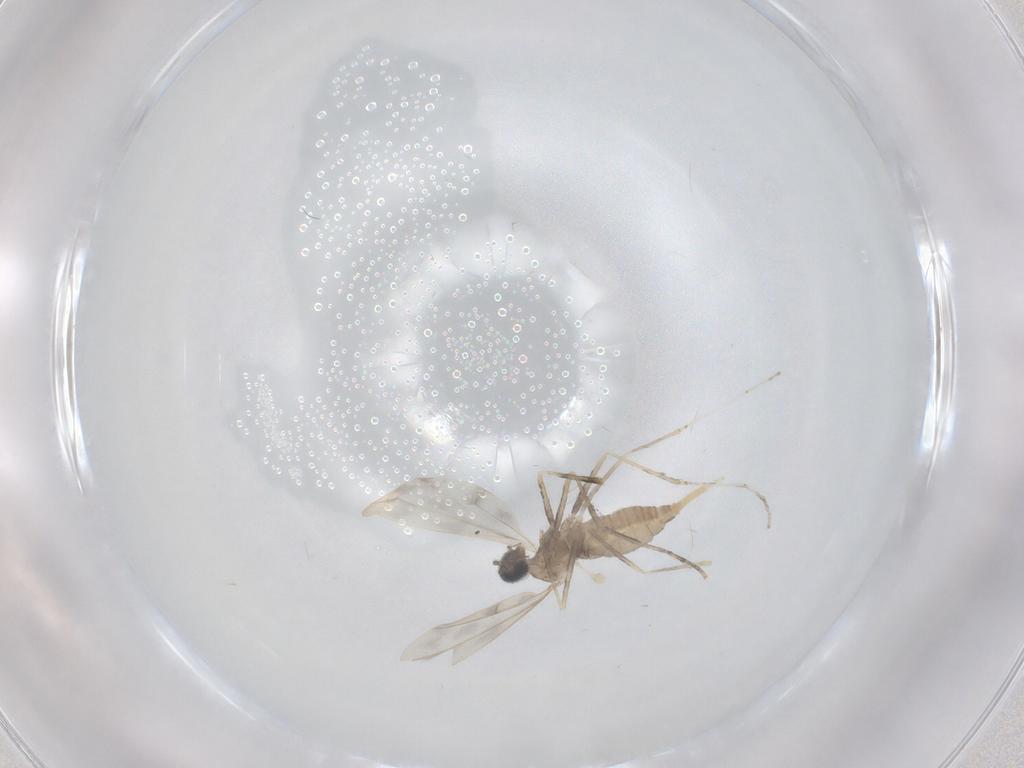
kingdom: Animalia
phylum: Arthropoda
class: Insecta
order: Diptera
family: Cecidomyiidae
